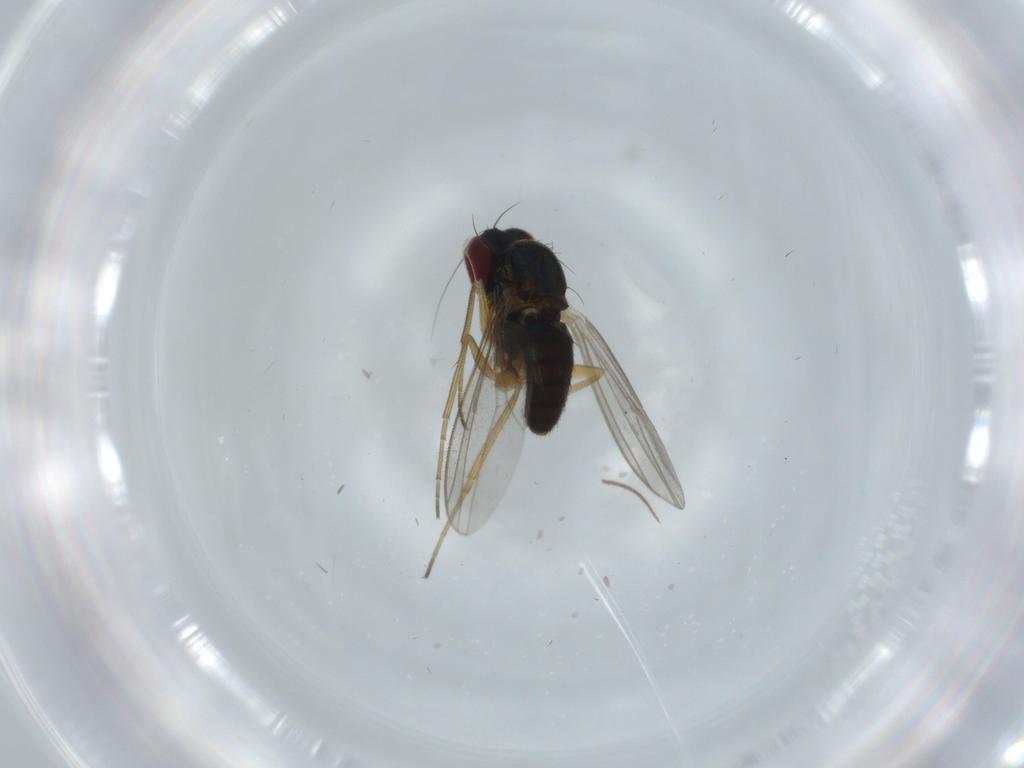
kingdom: Animalia
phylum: Arthropoda
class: Insecta
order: Diptera
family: Dolichopodidae
